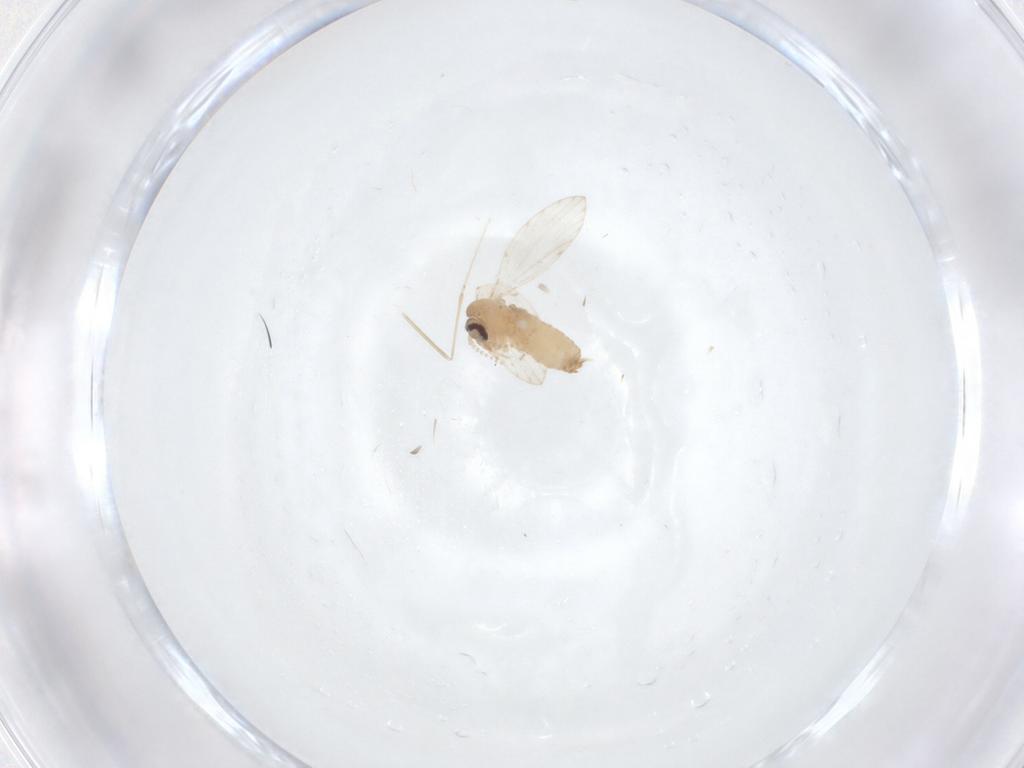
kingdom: Animalia
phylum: Arthropoda
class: Insecta
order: Diptera
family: Psychodidae
